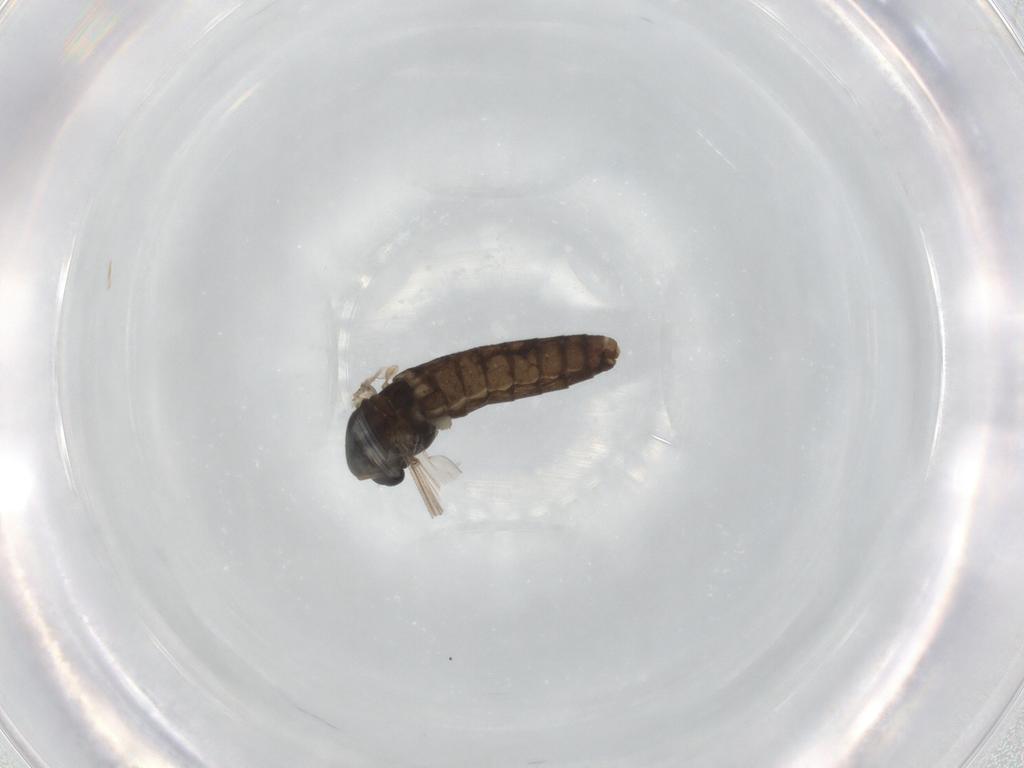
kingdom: Animalia
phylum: Arthropoda
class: Insecta
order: Diptera
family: Chironomidae
